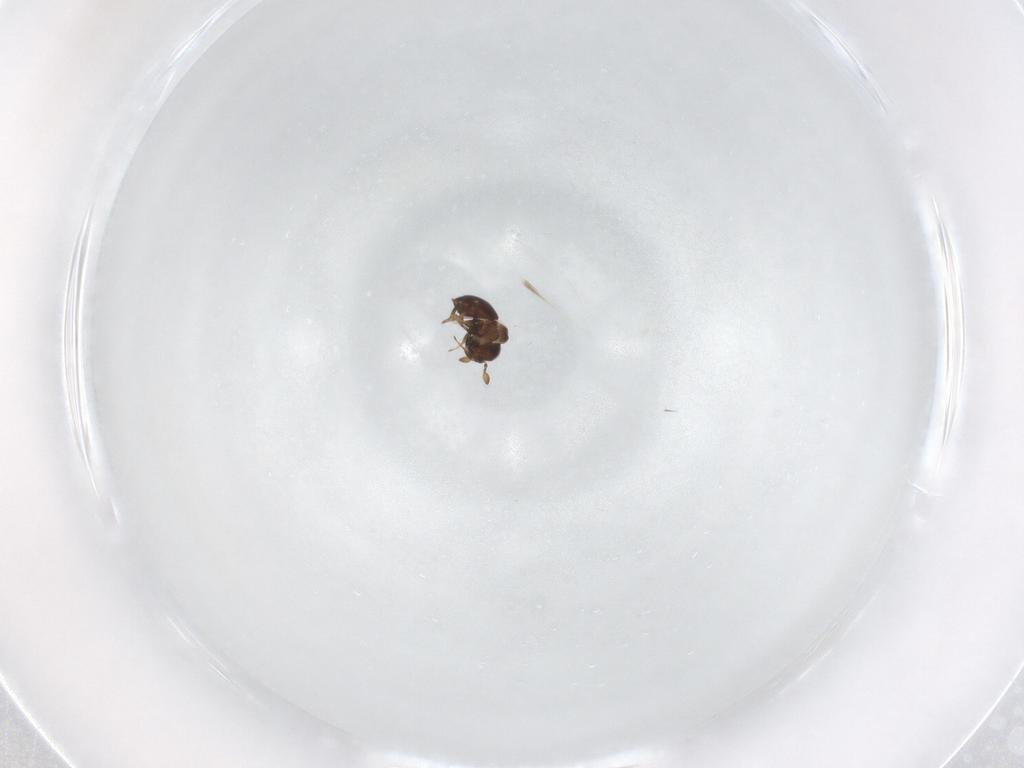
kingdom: Animalia
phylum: Arthropoda
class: Insecta
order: Hymenoptera
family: Scelionidae
